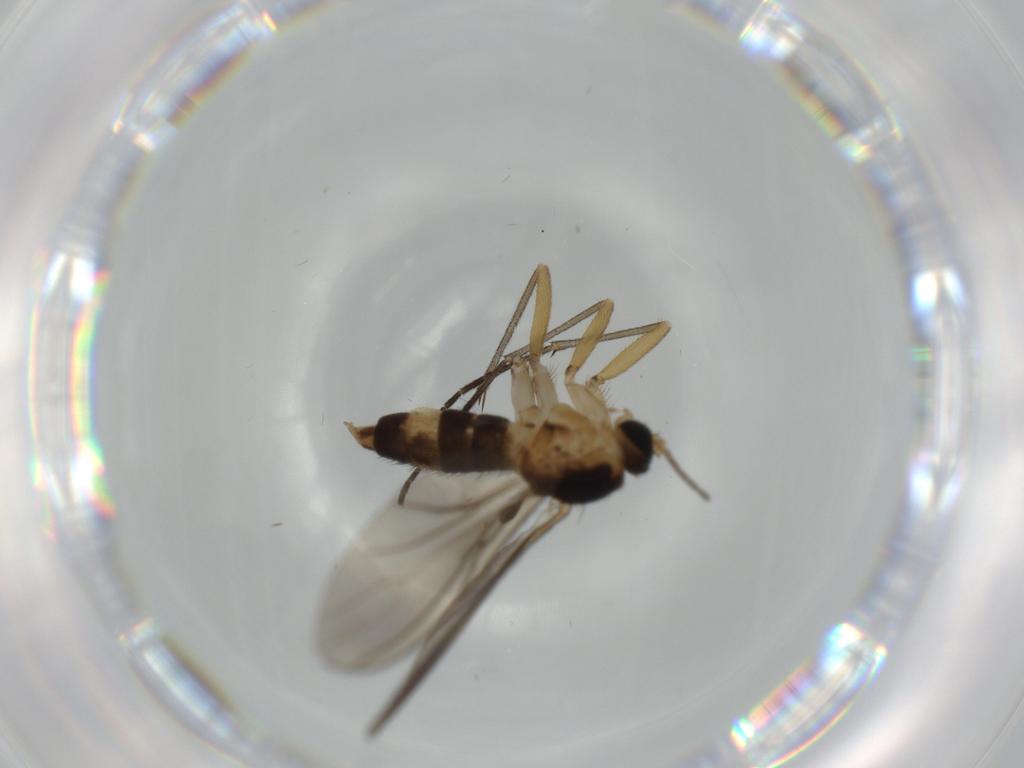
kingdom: Animalia
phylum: Arthropoda
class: Insecta
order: Diptera
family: Sciaridae
